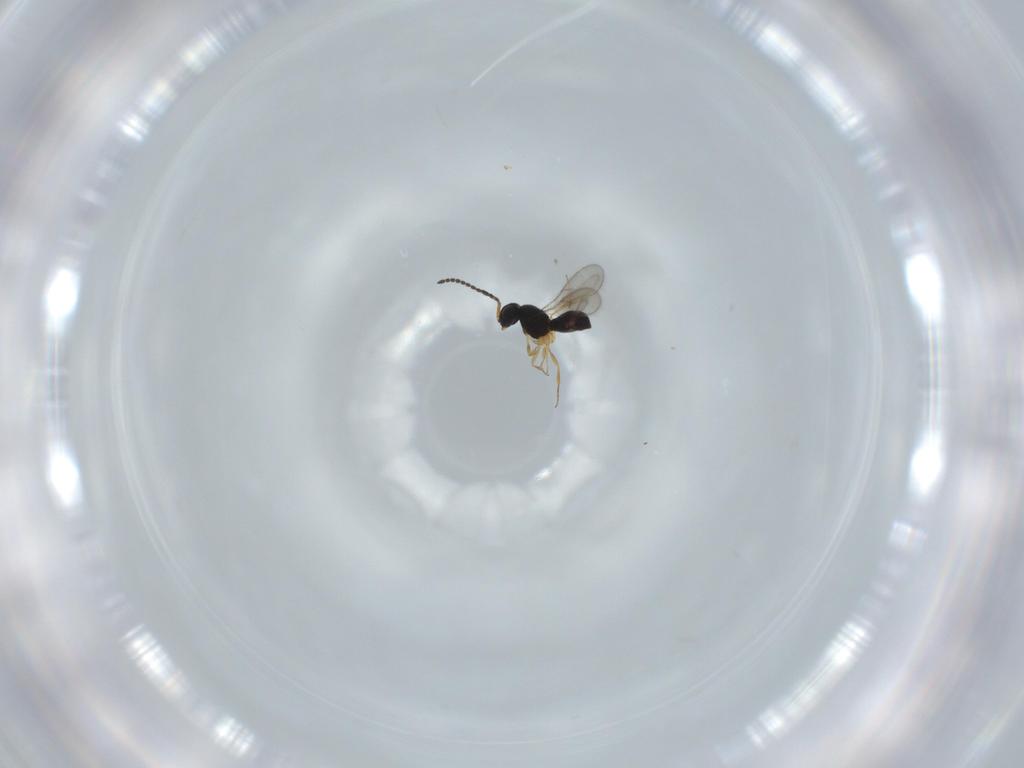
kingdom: Animalia
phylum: Arthropoda
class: Insecta
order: Hymenoptera
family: Scelionidae
